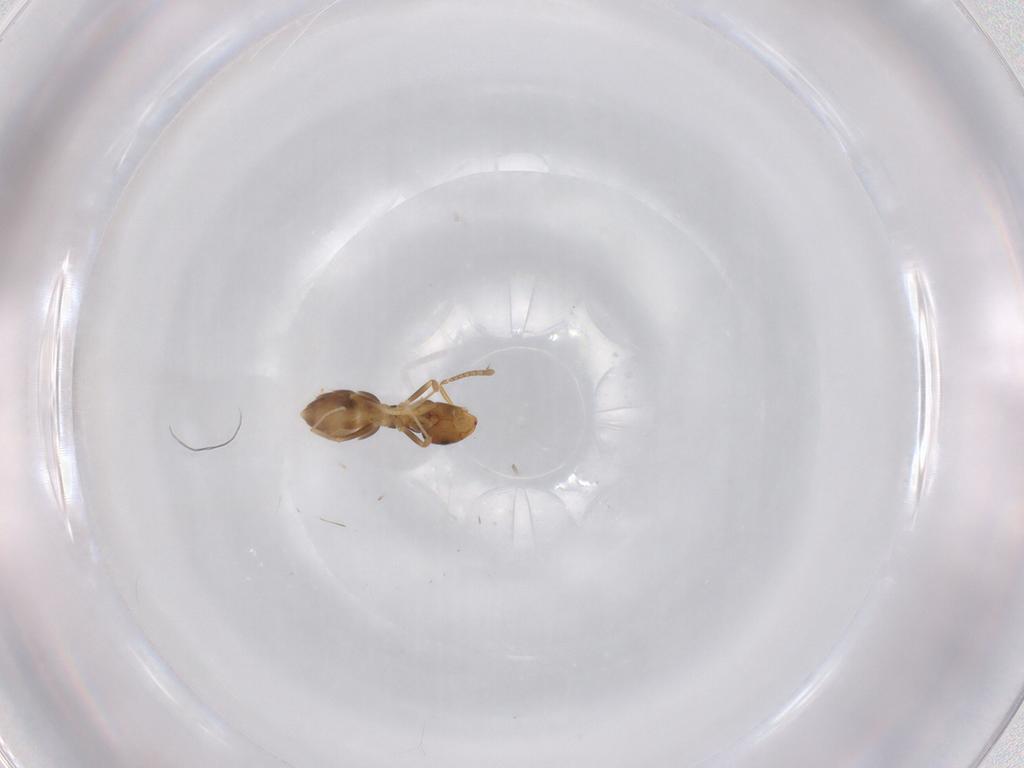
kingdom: Animalia
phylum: Arthropoda
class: Insecta
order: Hymenoptera
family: Formicidae
